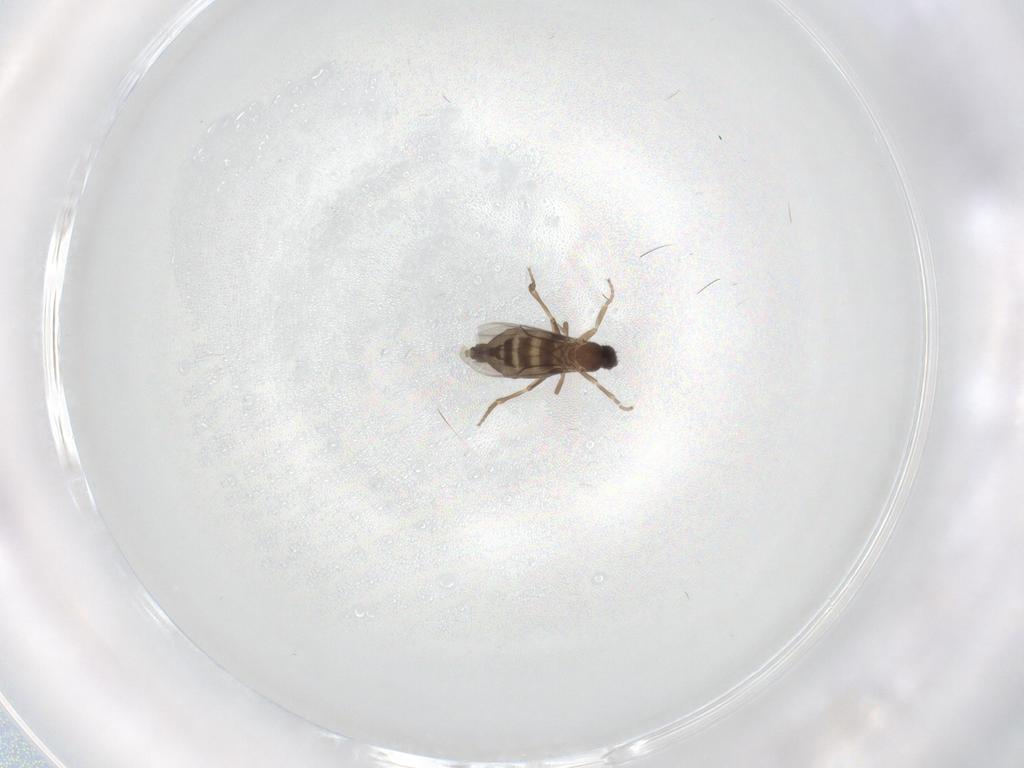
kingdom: Animalia
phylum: Arthropoda
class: Insecta
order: Diptera
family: Phoridae
